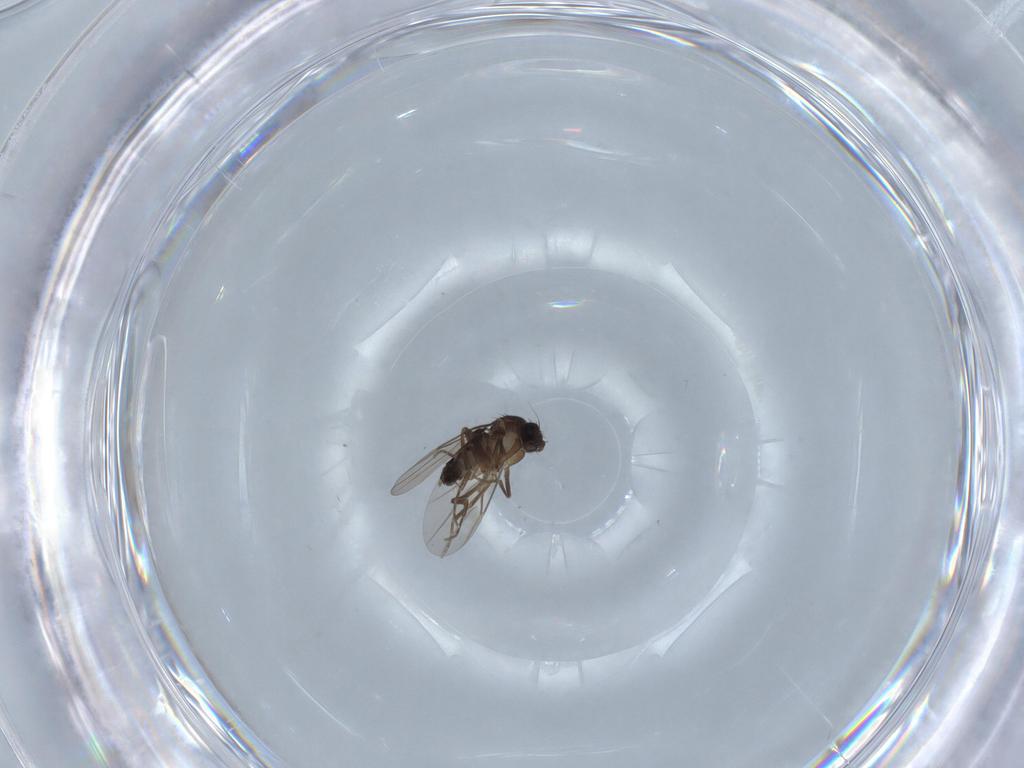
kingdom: Animalia
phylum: Arthropoda
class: Insecta
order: Diptera
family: Phoridae
